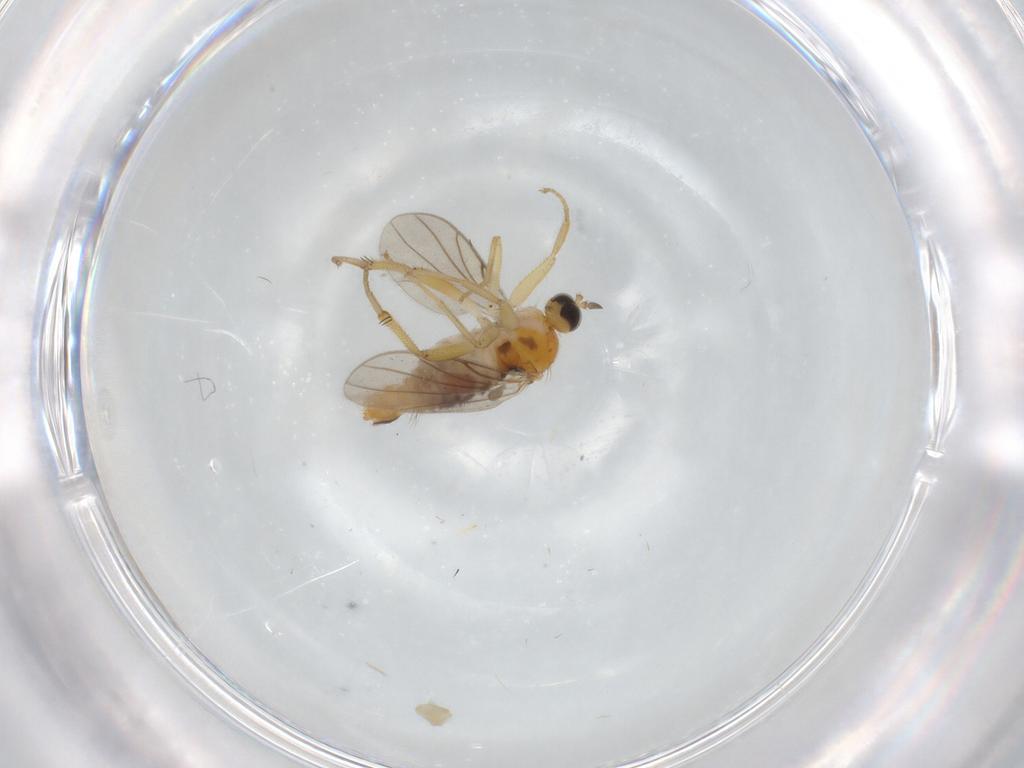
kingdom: Animalia
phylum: Arthropoda
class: Insecta
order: Diptera
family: Hybotidae
